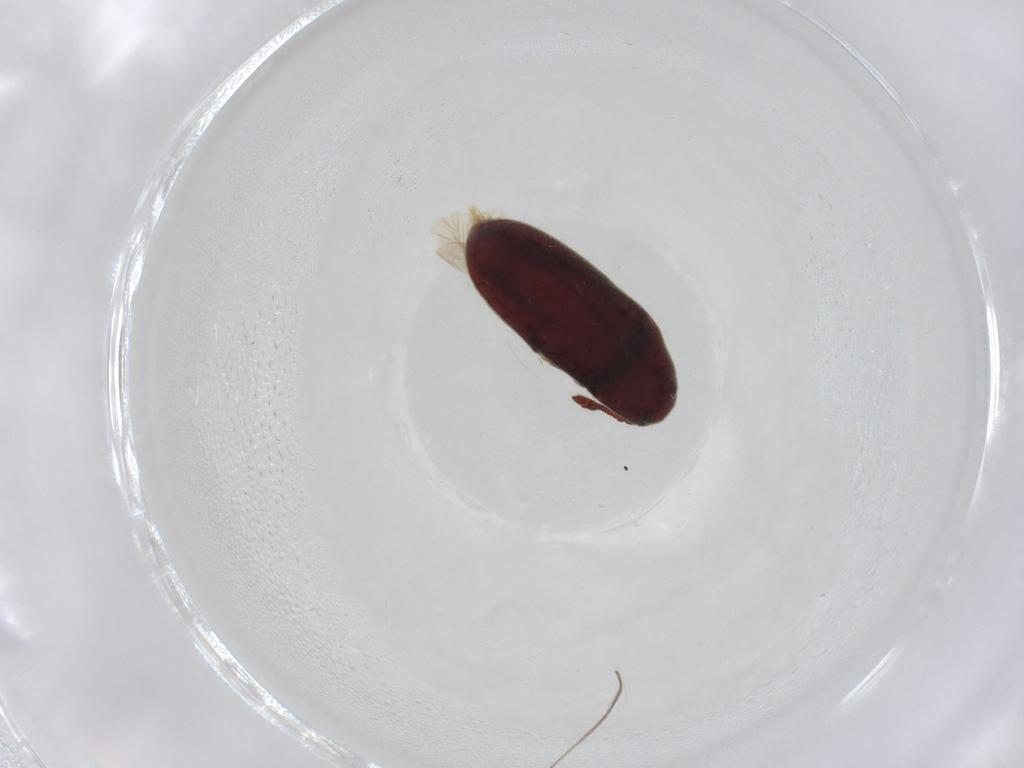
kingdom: Animalia
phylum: Arthropoda
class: Insecta
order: Coleoptera
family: Throscidae
